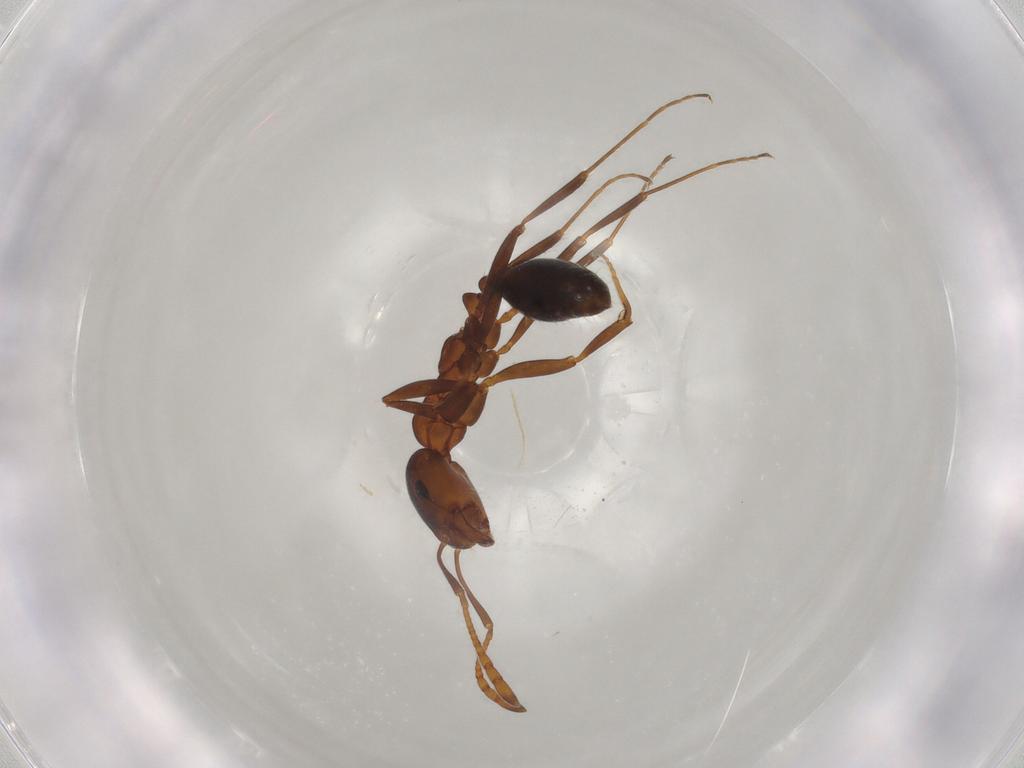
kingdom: Animalia
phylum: Arthropoda
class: Insecta
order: Hymenoptera
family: Formicidae
